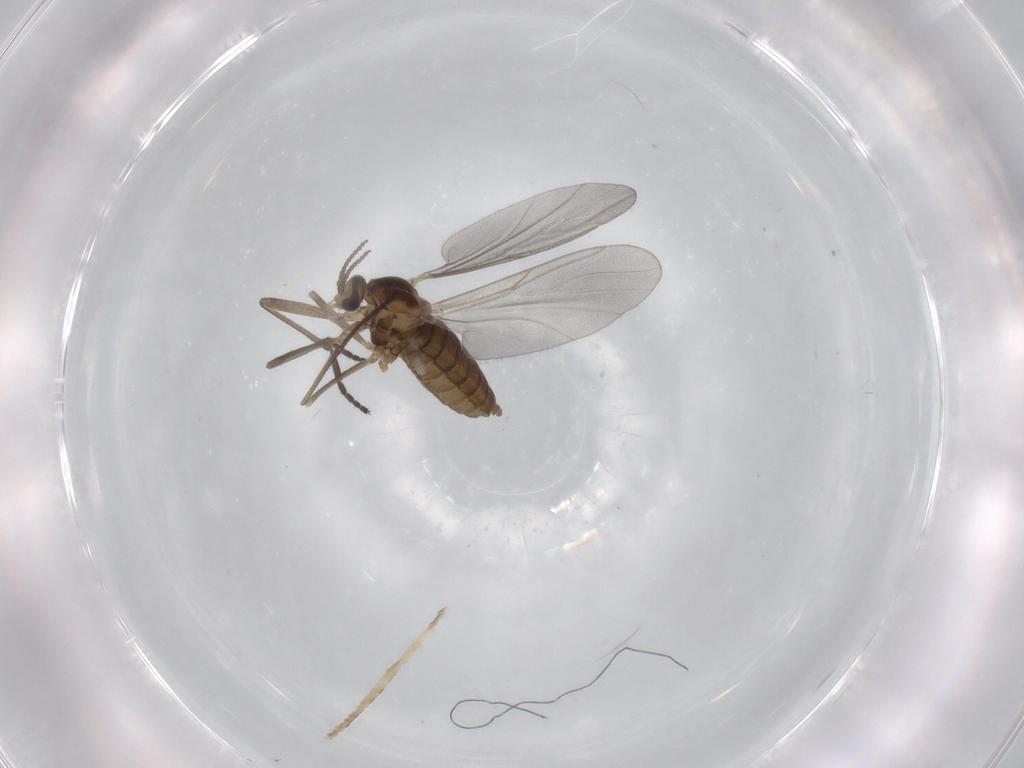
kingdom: Animalia
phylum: Arthropoda
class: Insecta
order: Diptera
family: Cecidomyiidae
